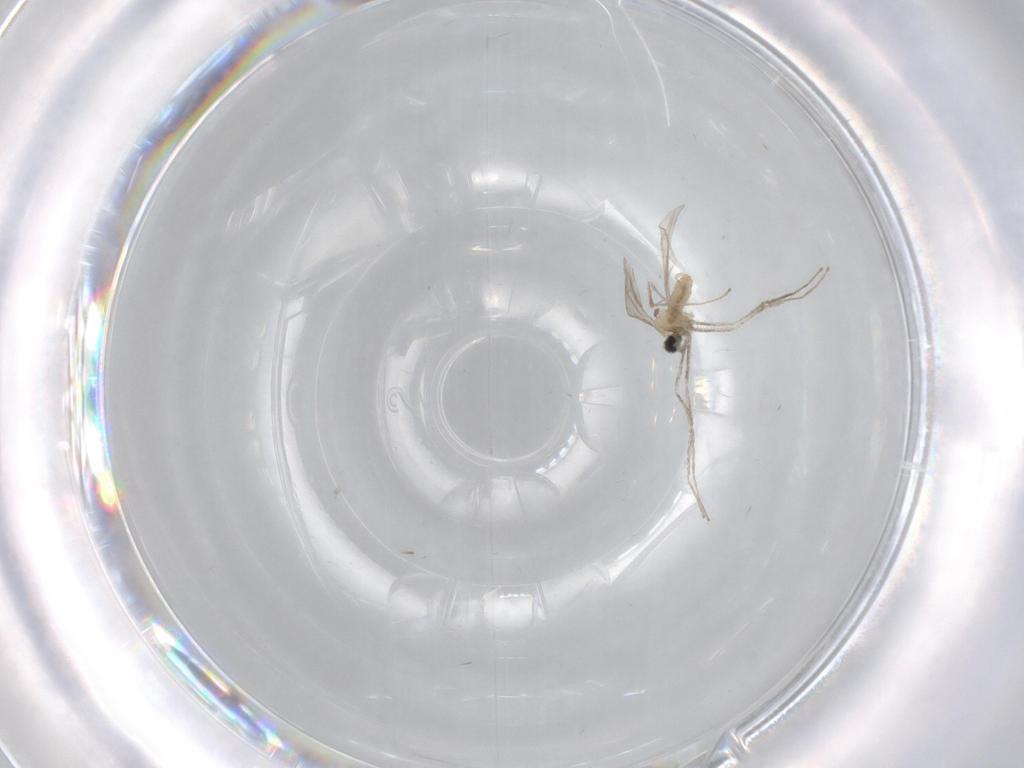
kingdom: Animalia
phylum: Arthropoda
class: Insecta
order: Diptera
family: Cecidomyiidae
